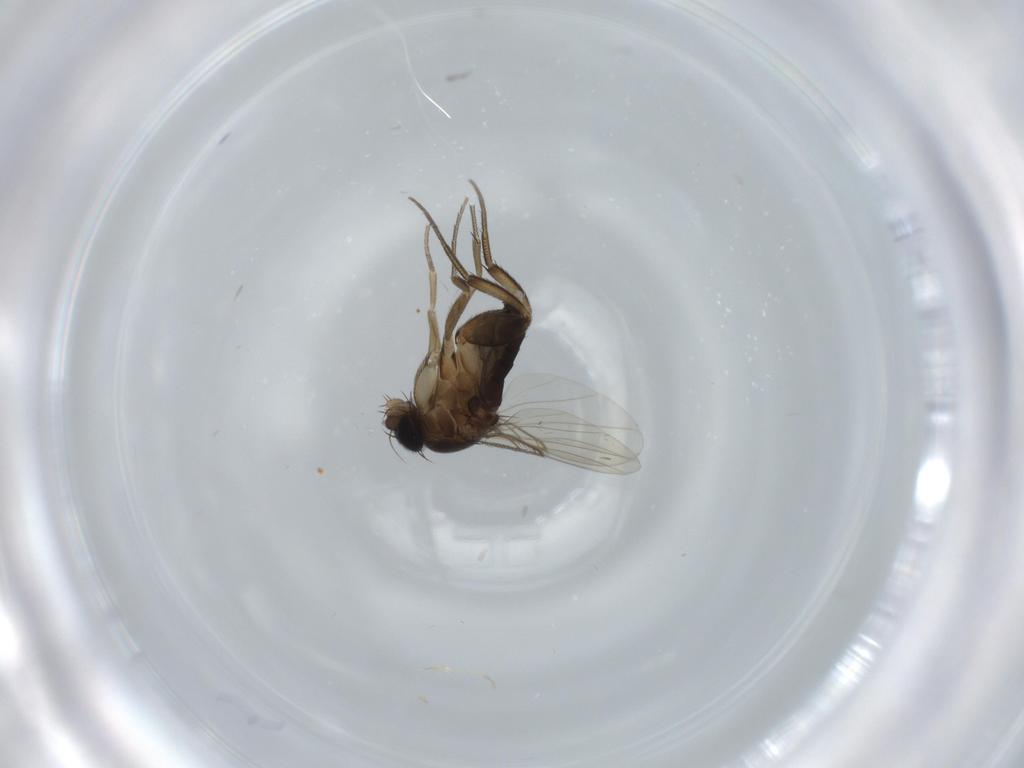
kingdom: Animalia
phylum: Arthropoda
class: Insecta
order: Diptera
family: Phoridae
